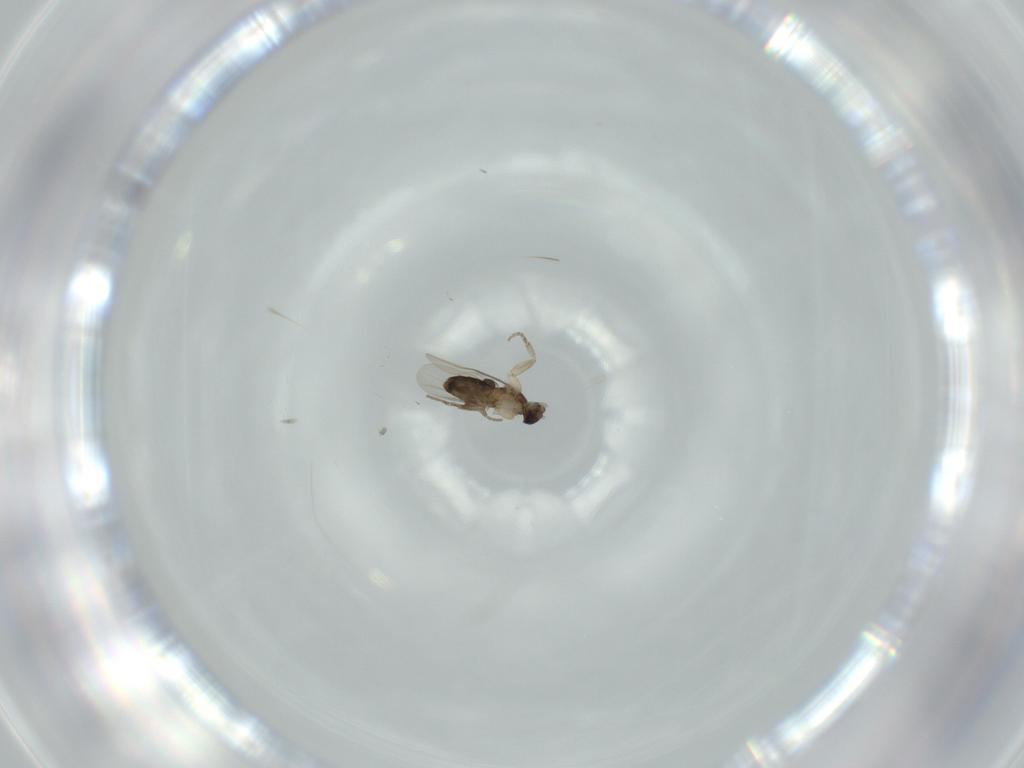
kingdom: Animalia
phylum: Arthropoda
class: Insecta
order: Diptera
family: Phoridae
